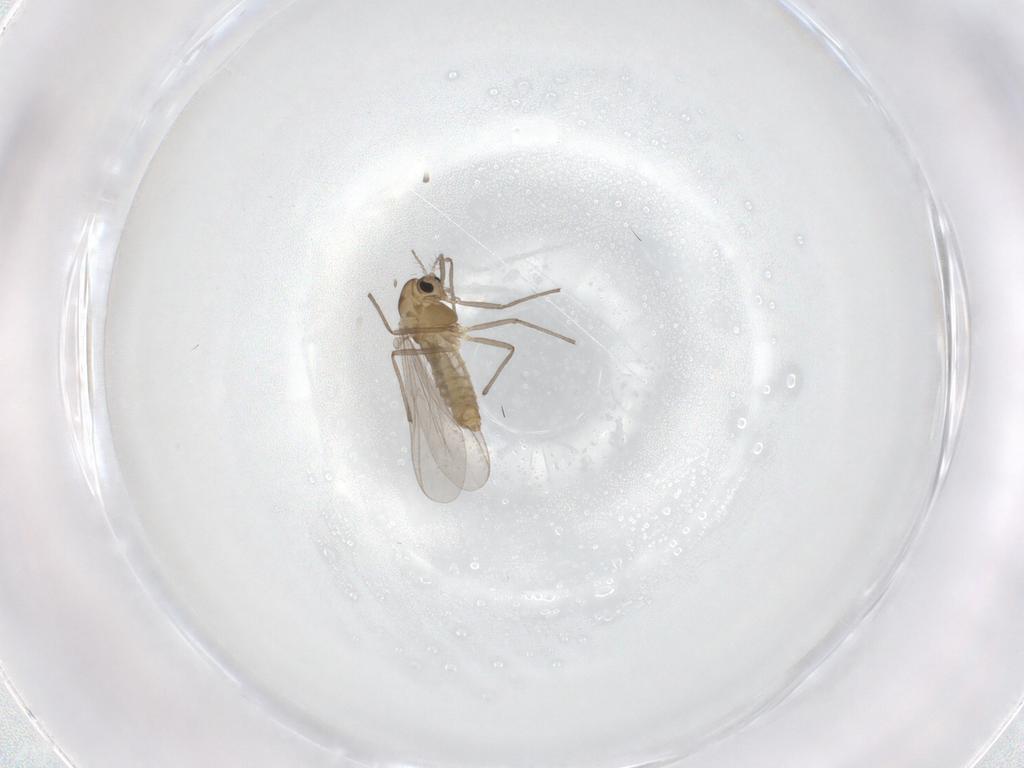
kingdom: Animalia
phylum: Arthropoda
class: Insecta
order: Diptera
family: Chironomidae
